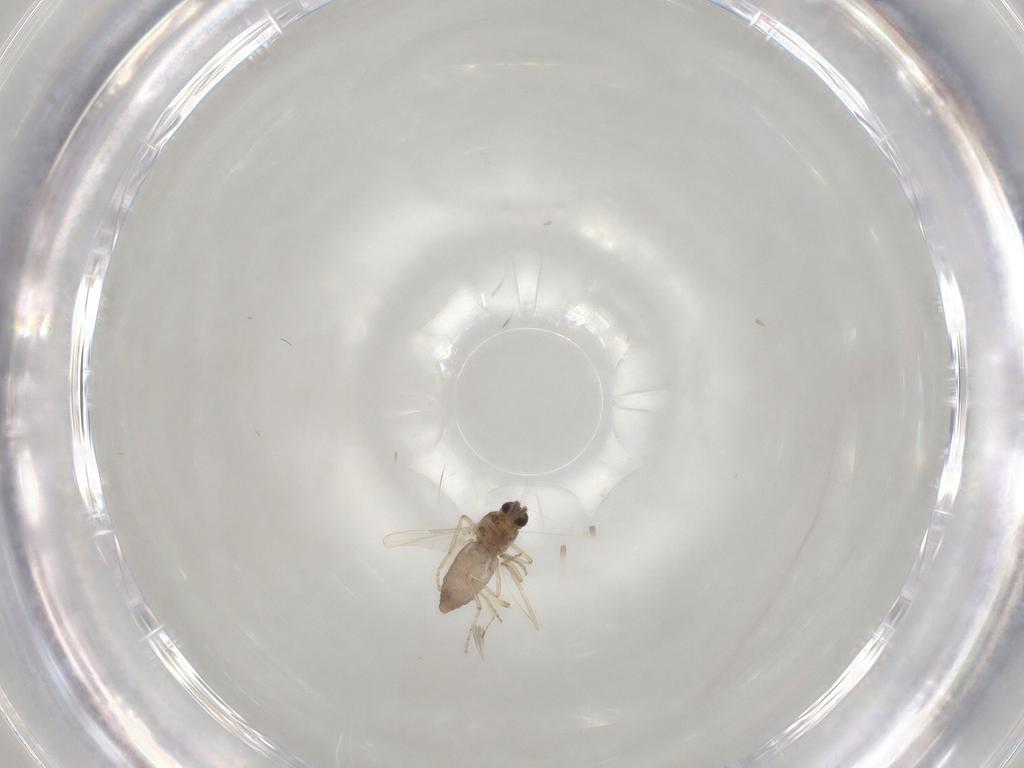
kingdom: Animalia
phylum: Arthropoda
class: Insecta
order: Diptera
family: Ceratopogonidae
